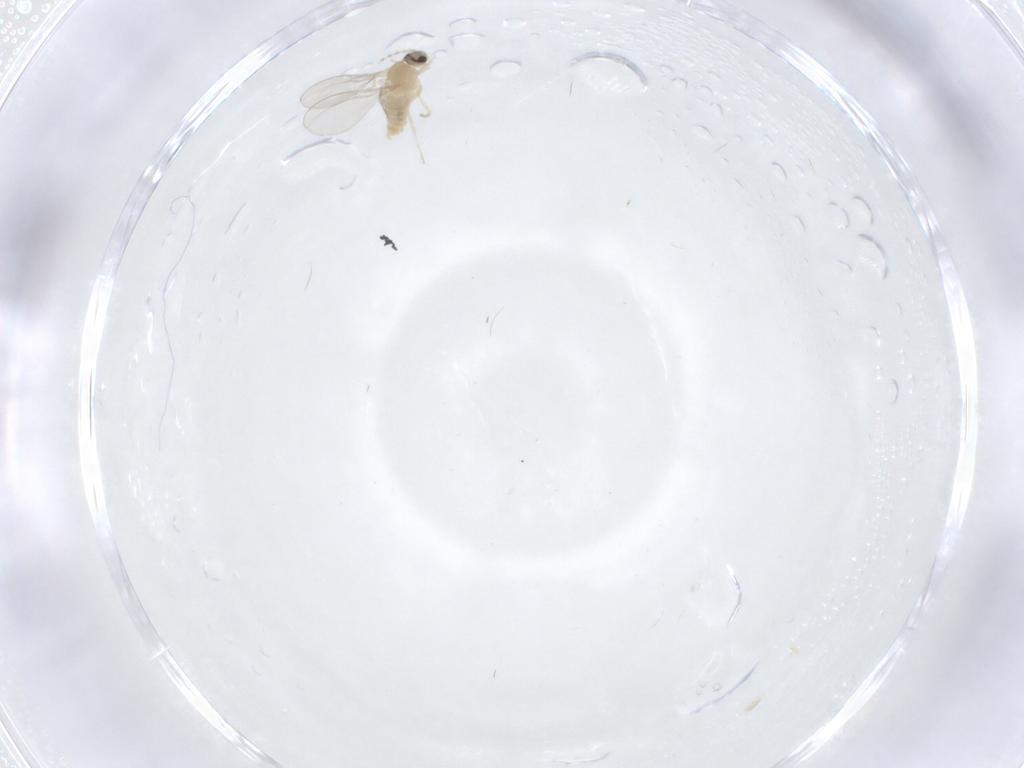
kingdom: Animalia
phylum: Arthropoda
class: Insecta
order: Diptera
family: Cecidomyiidae
